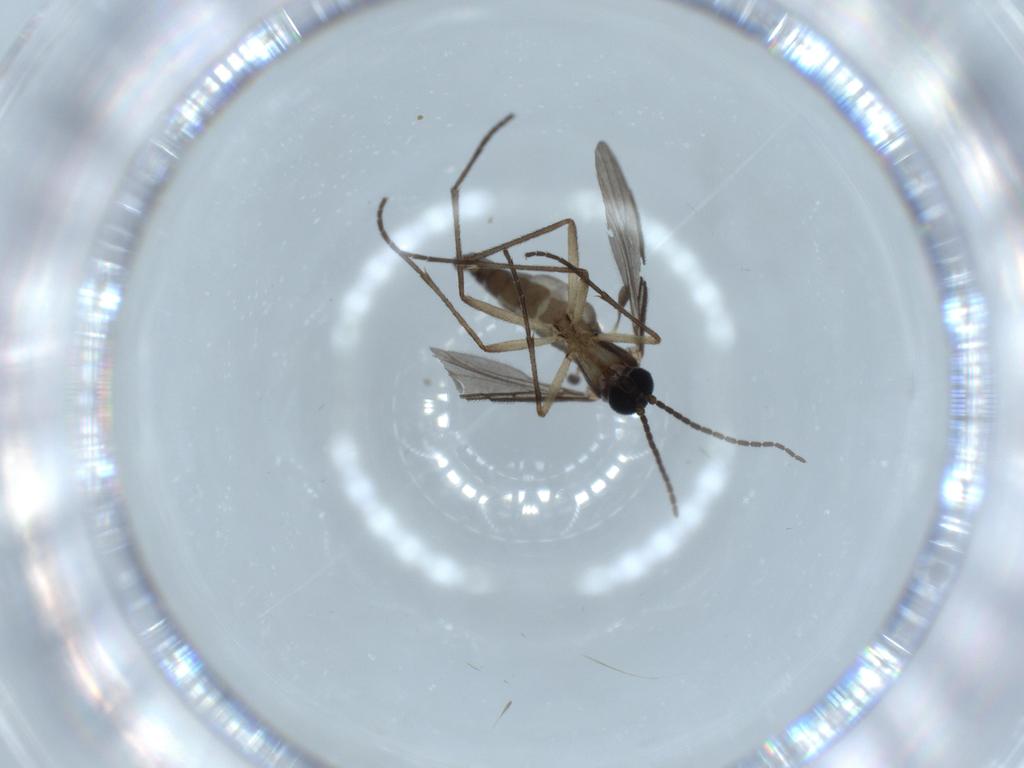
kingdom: Animalia
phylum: Arthropoda
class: Insecta
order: Diptera
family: Sciaridae
